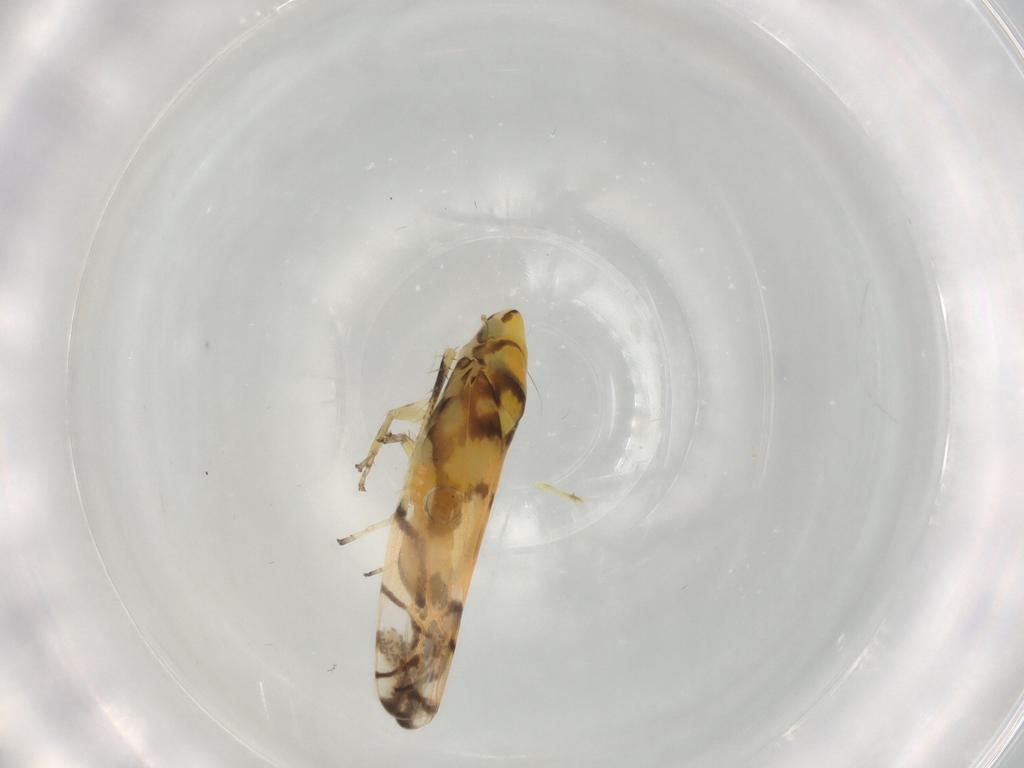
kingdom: Animalia
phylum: Arthropoda
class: Insecta
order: Hemiptera
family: Cicadellidae
